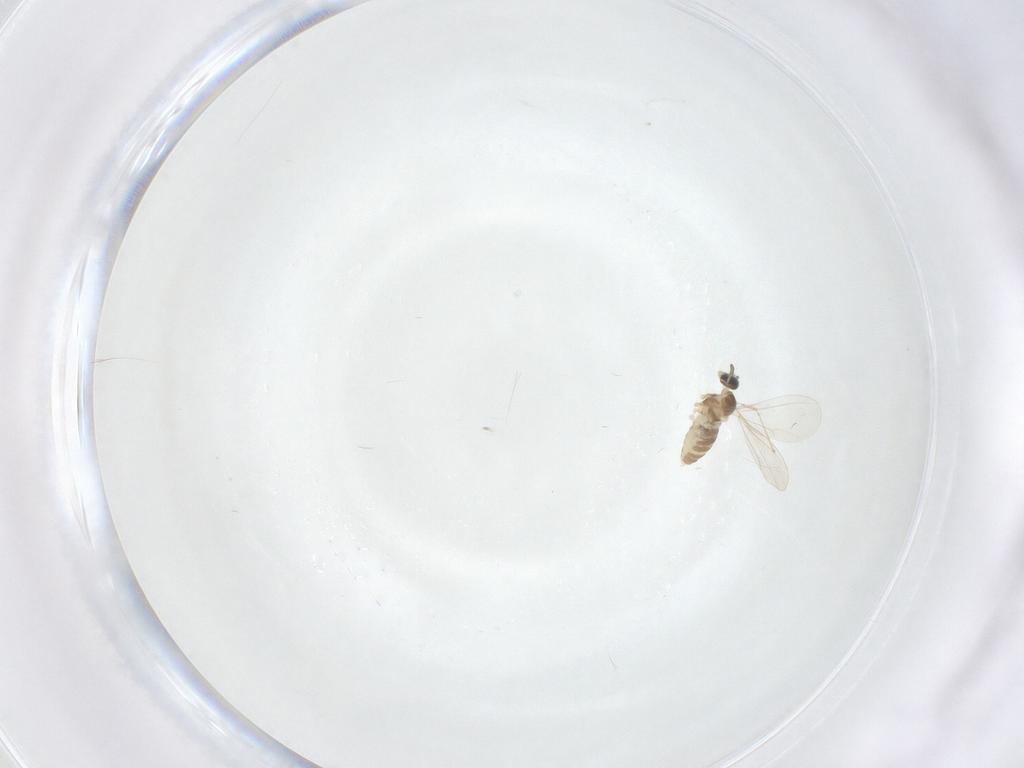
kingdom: Animalia
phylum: Arthropoda
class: Insecta
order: Diptera
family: Cecidomyiidae
